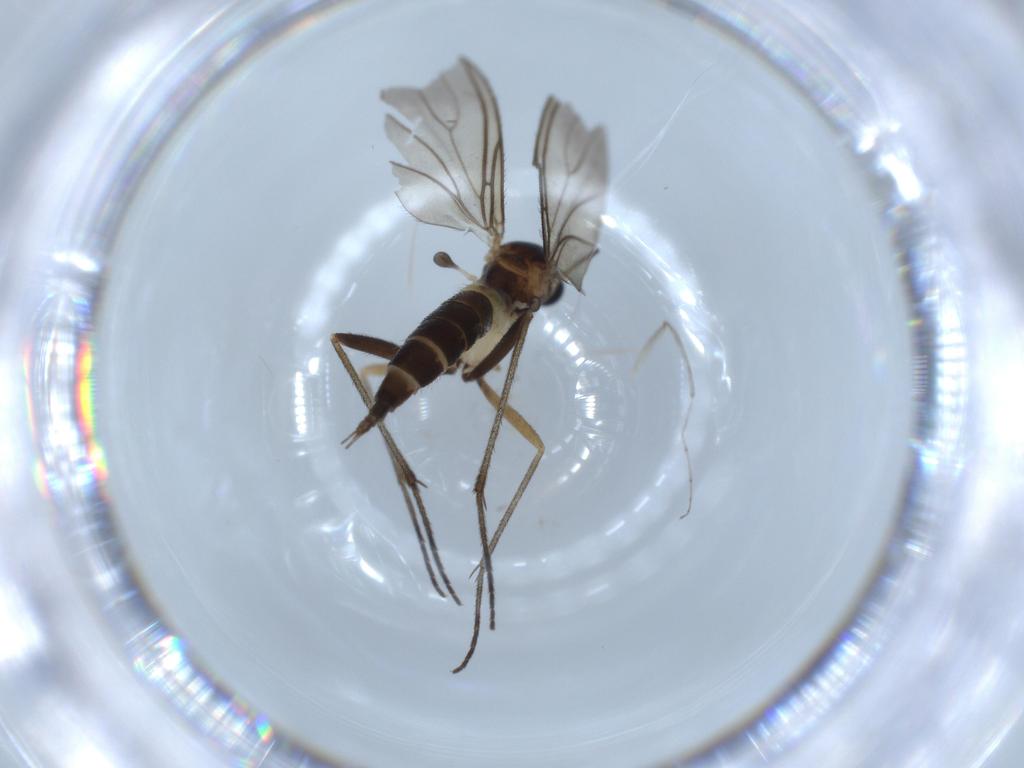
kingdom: Animalia
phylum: Arthropoda
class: Insecta
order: Diptera
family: Chironomidae
